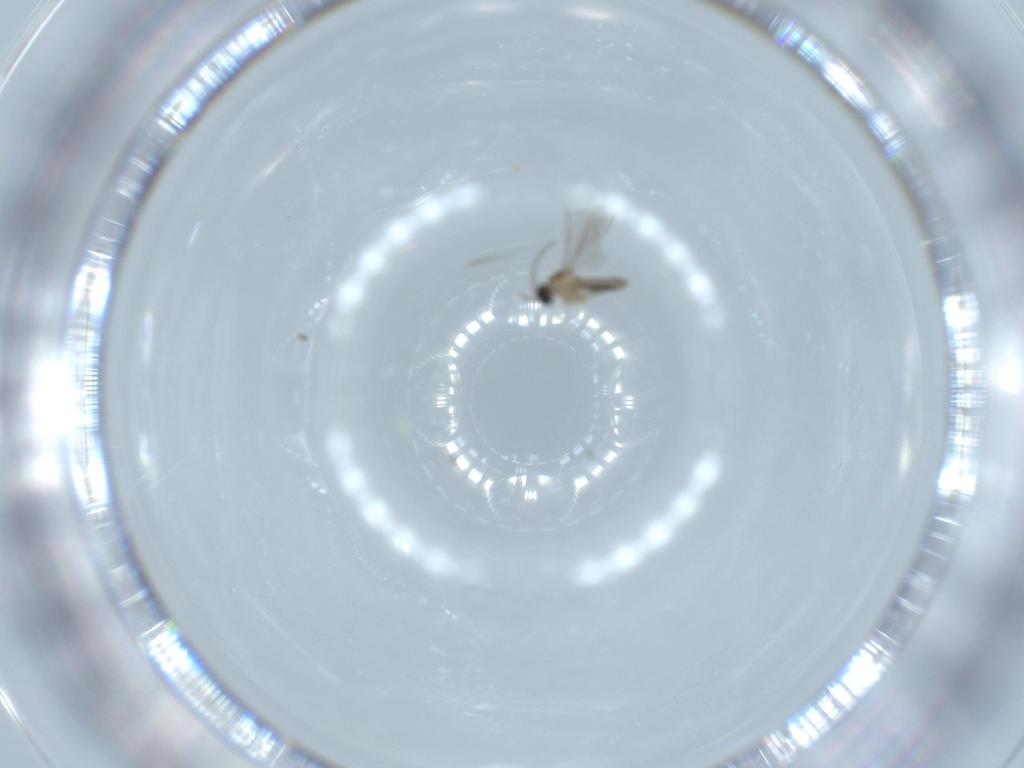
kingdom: Animalia
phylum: Arthropoda
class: Insecta
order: Diptera
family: Cecidomyiidae
